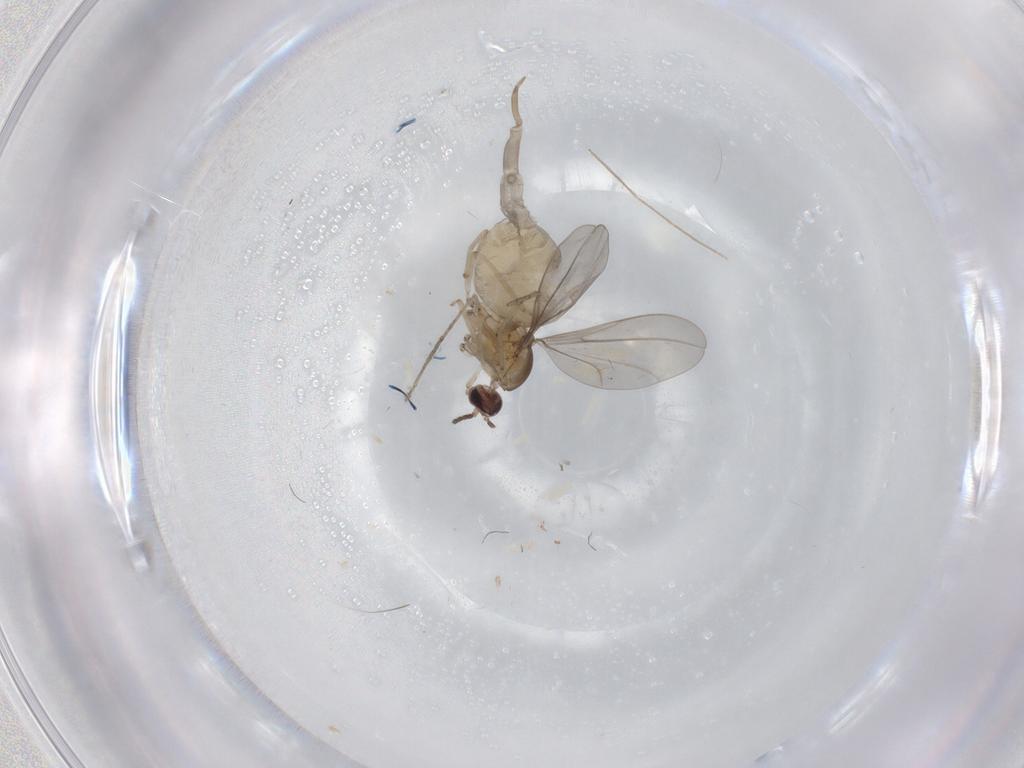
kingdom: Animalia
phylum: Arthropoda
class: Insecta
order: Diptera
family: Cecidomyiidae
